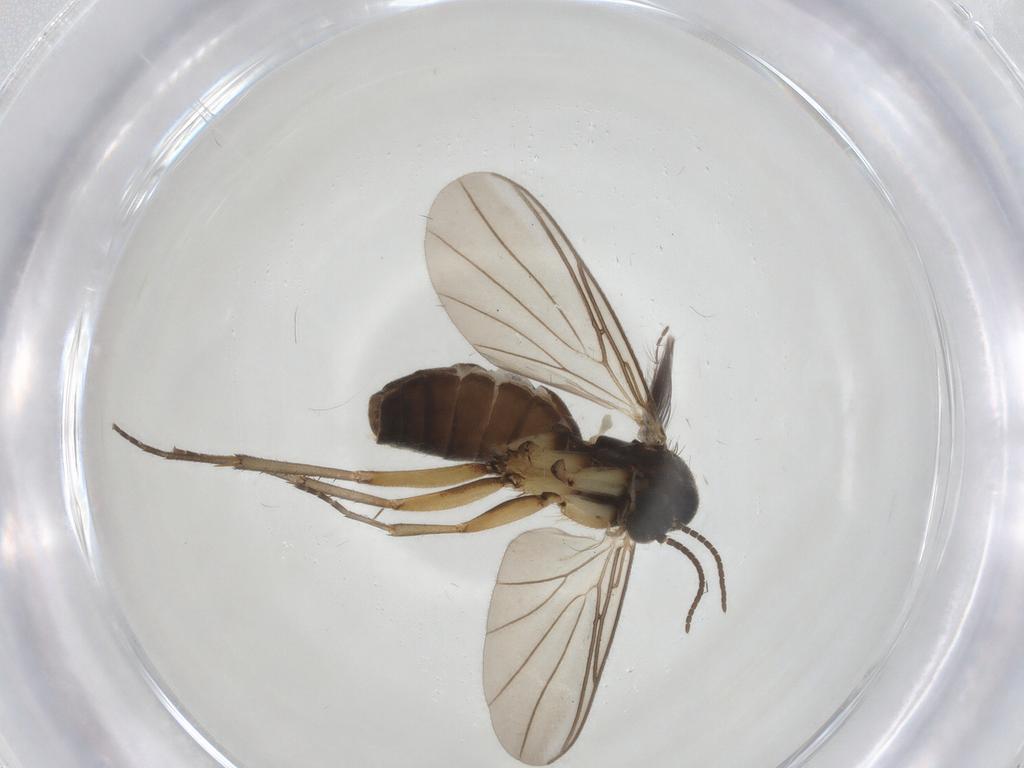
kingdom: Animalia
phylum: Arthropoda
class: Insecta
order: Diptera
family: Mycetophilidae
